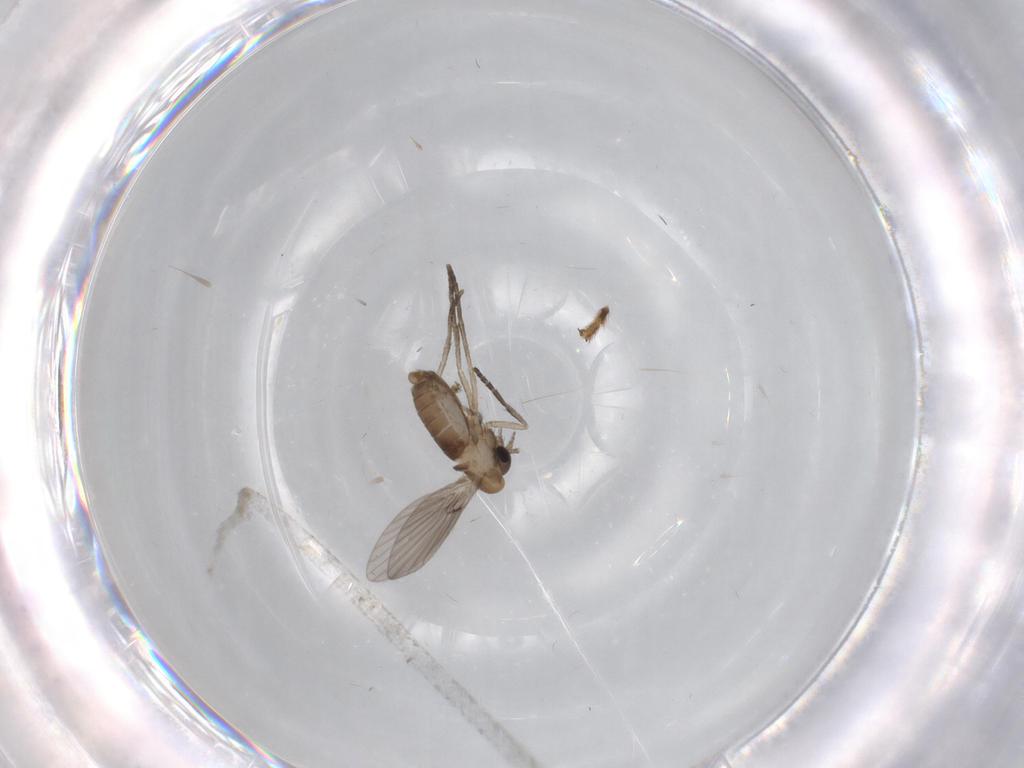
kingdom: Animalia
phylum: Arthropoda
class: Insecta
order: Diptera
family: Stratiomyidae
